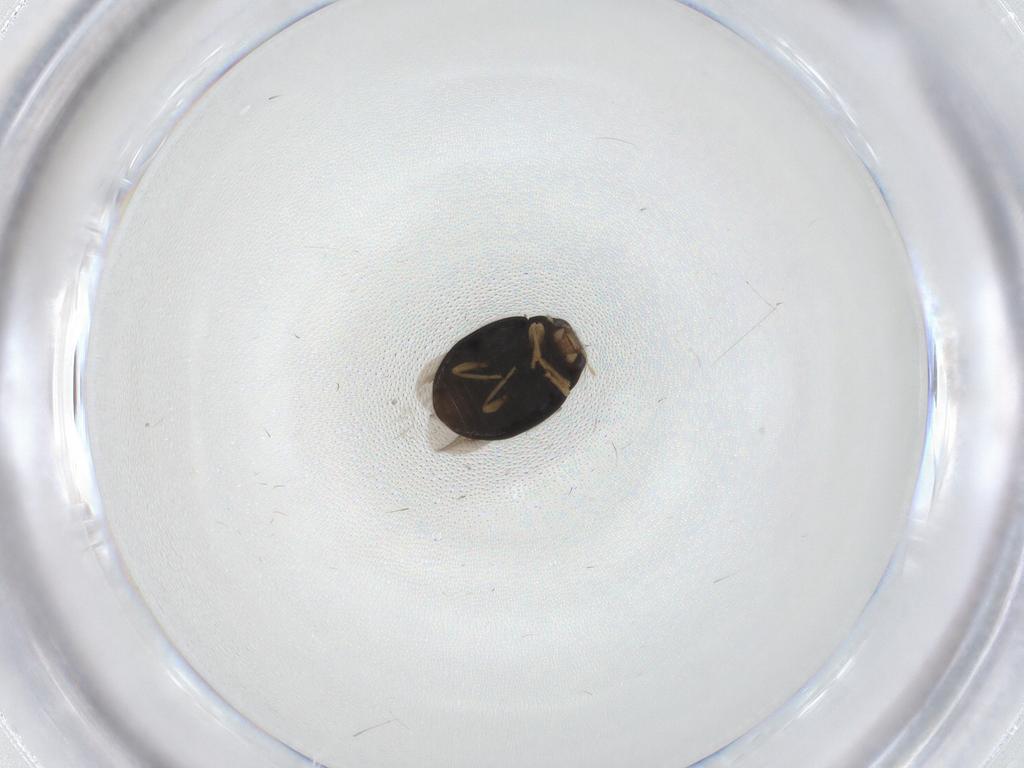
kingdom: Animalia
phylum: Arthropoda
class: Insecta
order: Coleoptera
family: Coccinellidae
